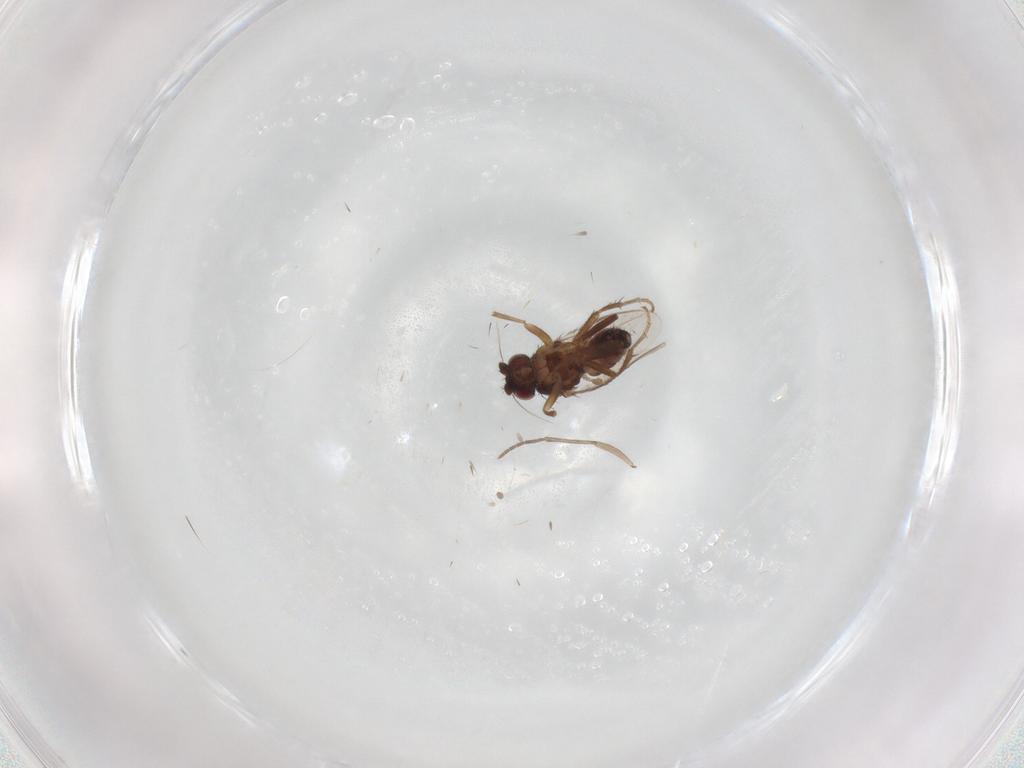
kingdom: Animalia
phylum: Arthropoda
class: Insecta
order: Diptera
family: Sphaeroceridae
